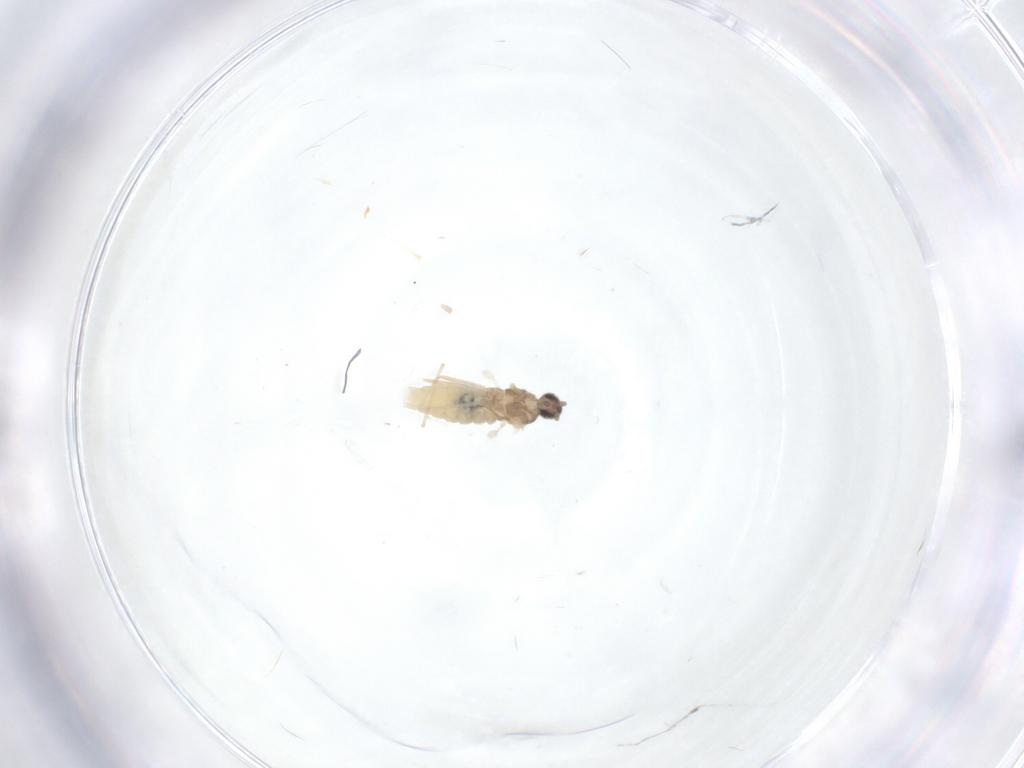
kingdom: Animalia
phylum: Arthropoda
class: Insecta
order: Diptera
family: Cecidomyiidae
